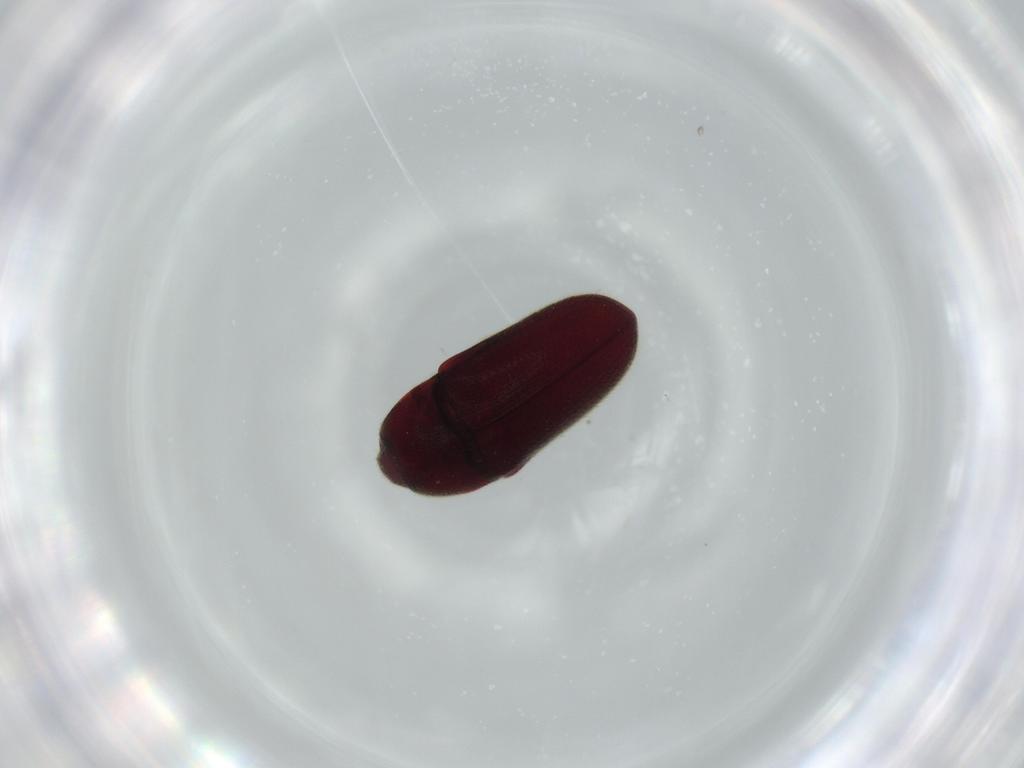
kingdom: Animalia
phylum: Arthropoda
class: Insecta
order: Coleoptera
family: Throscidae
